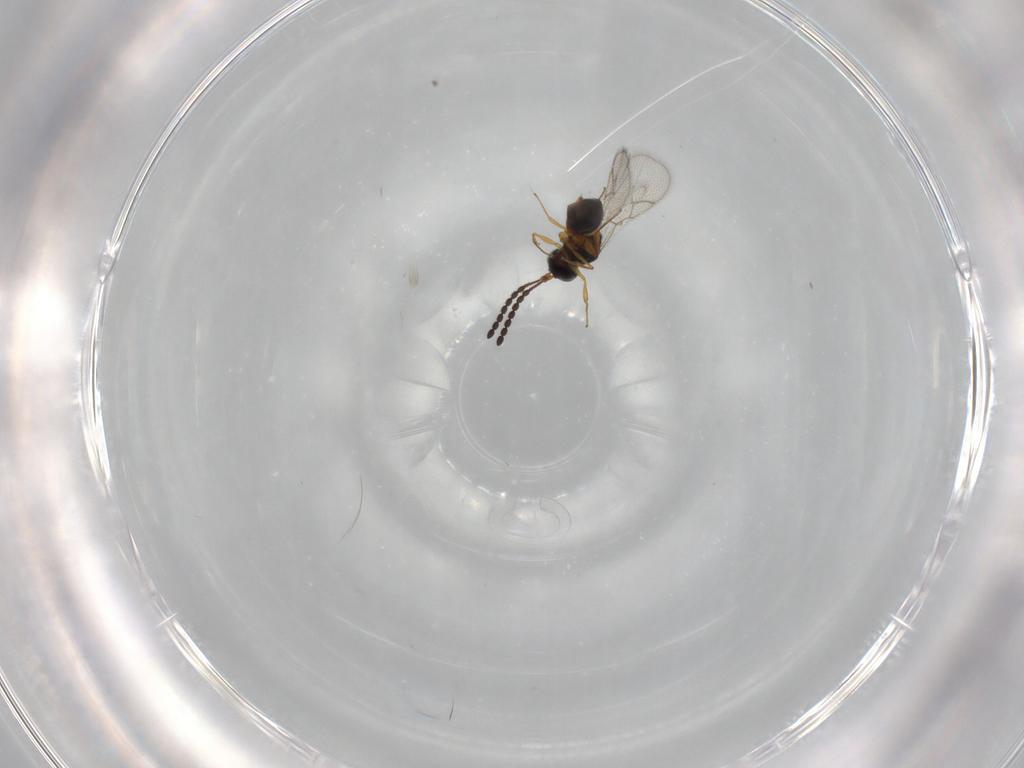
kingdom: Animalia
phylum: Arthropoda
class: Insecta
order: Hymenoptera
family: Figitidae
